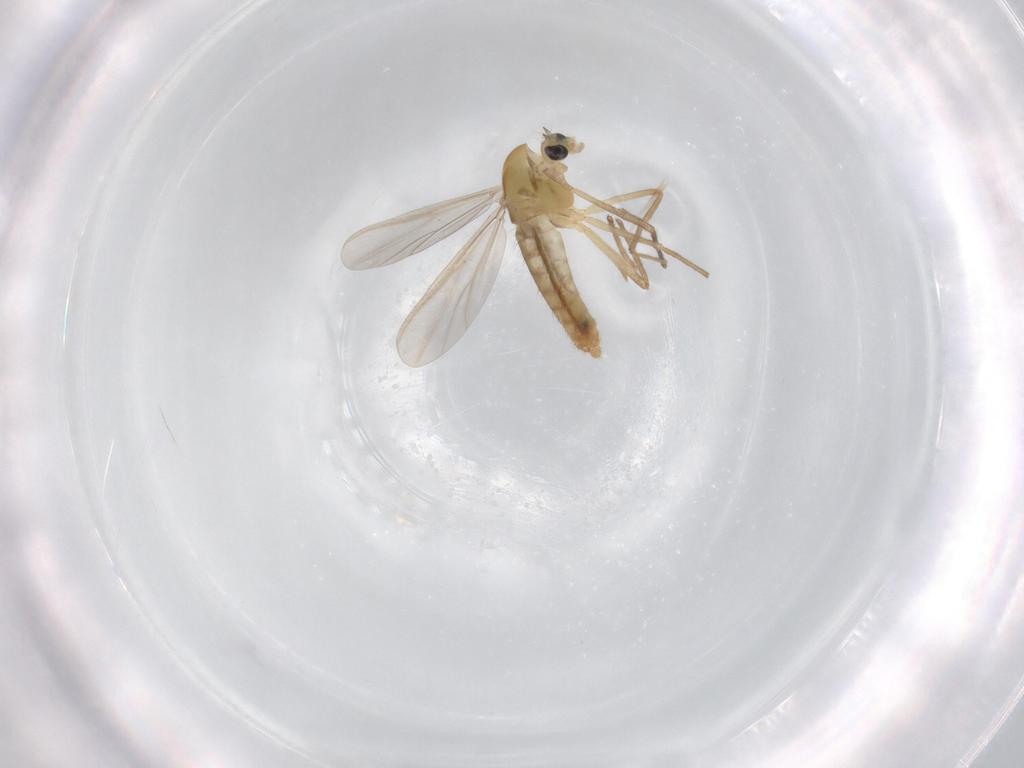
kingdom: Animalia
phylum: Arthropoda
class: Insecta
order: Diptera
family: Chironomidae
